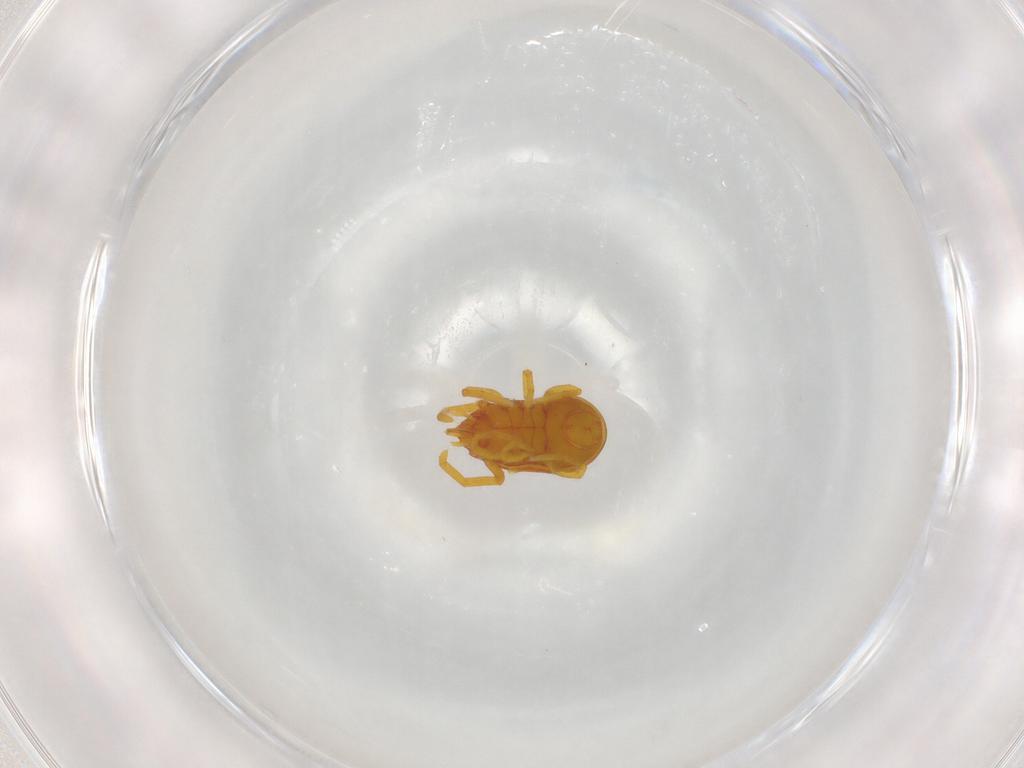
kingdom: Animalia
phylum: Arthropoda
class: Arachnida
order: Trombidiformes
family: Labidostommidae
